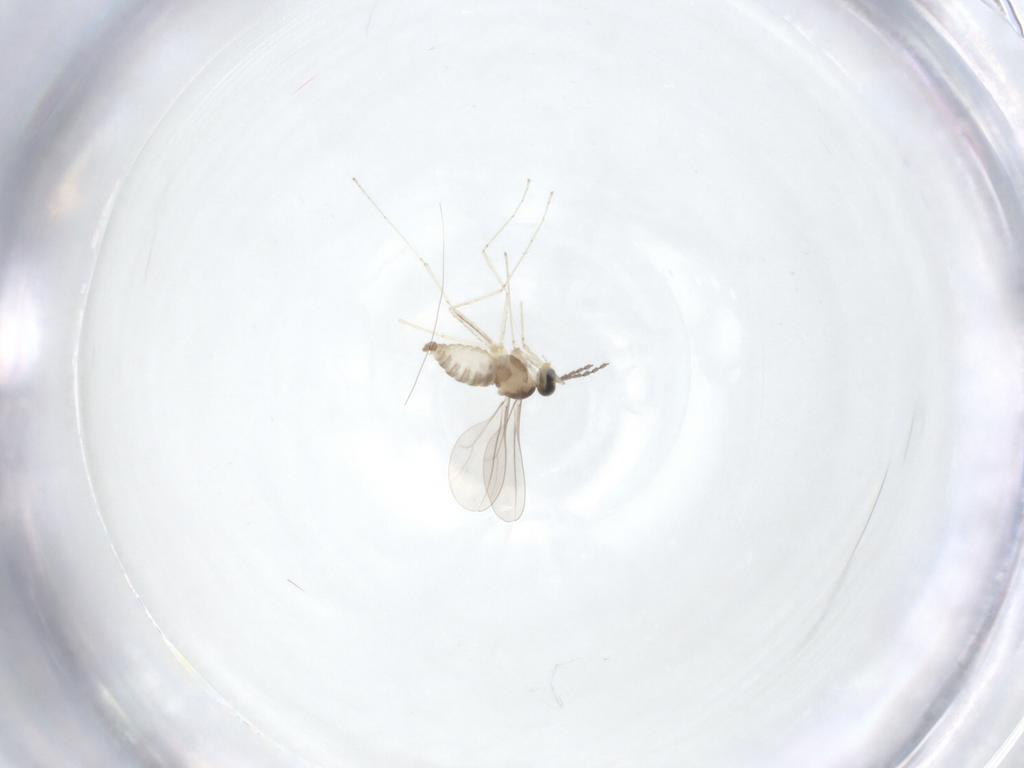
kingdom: Animalia
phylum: Arthropoda
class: Insecta
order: Diptera
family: Cecidomyiidae
